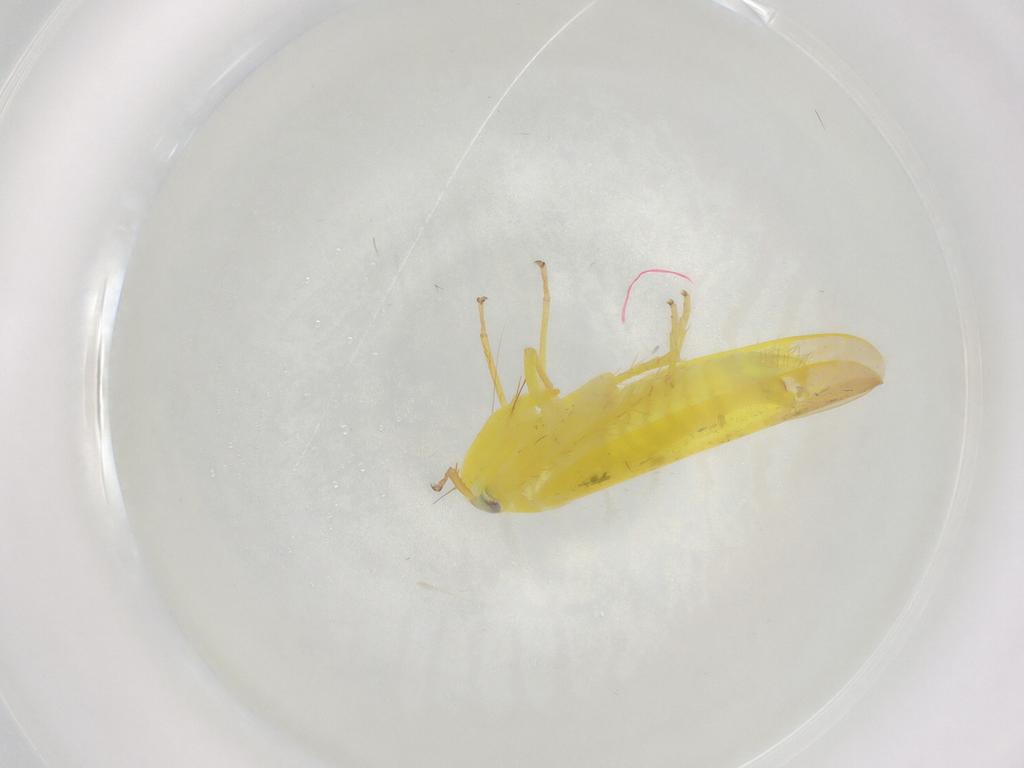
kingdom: Animalia
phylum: Arthropoda
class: Insecta
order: Hemiptera
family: Cicadellidae
